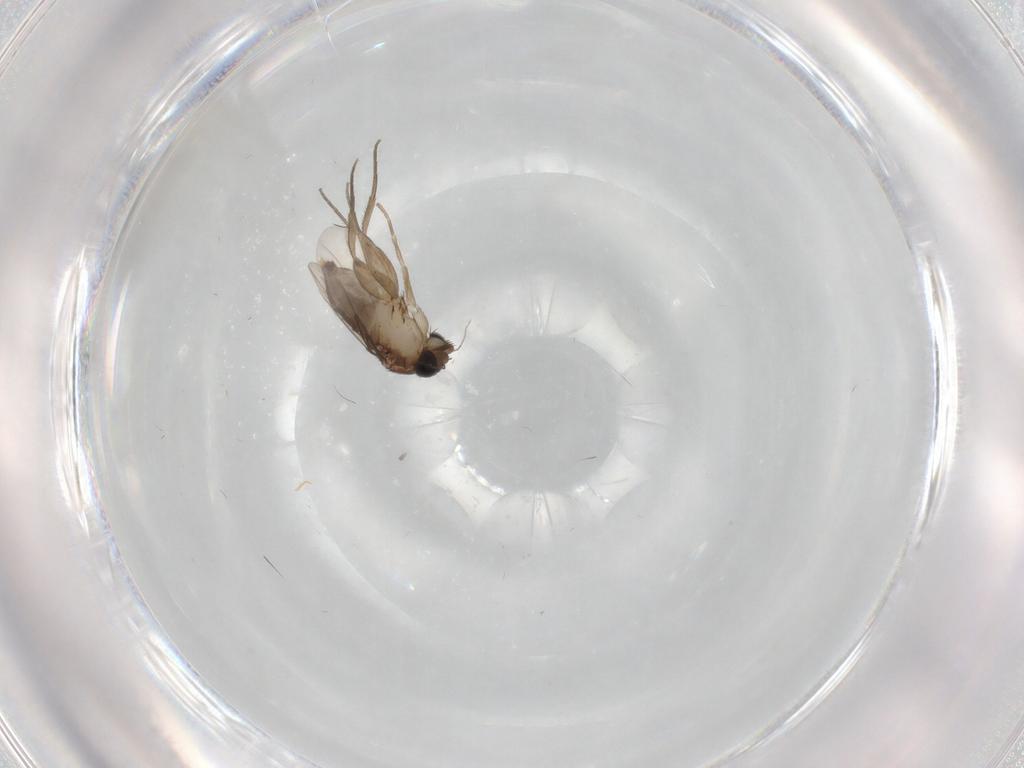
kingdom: Animalia
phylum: Arthropoda
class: Insecta
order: Diptera
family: Phoridae
